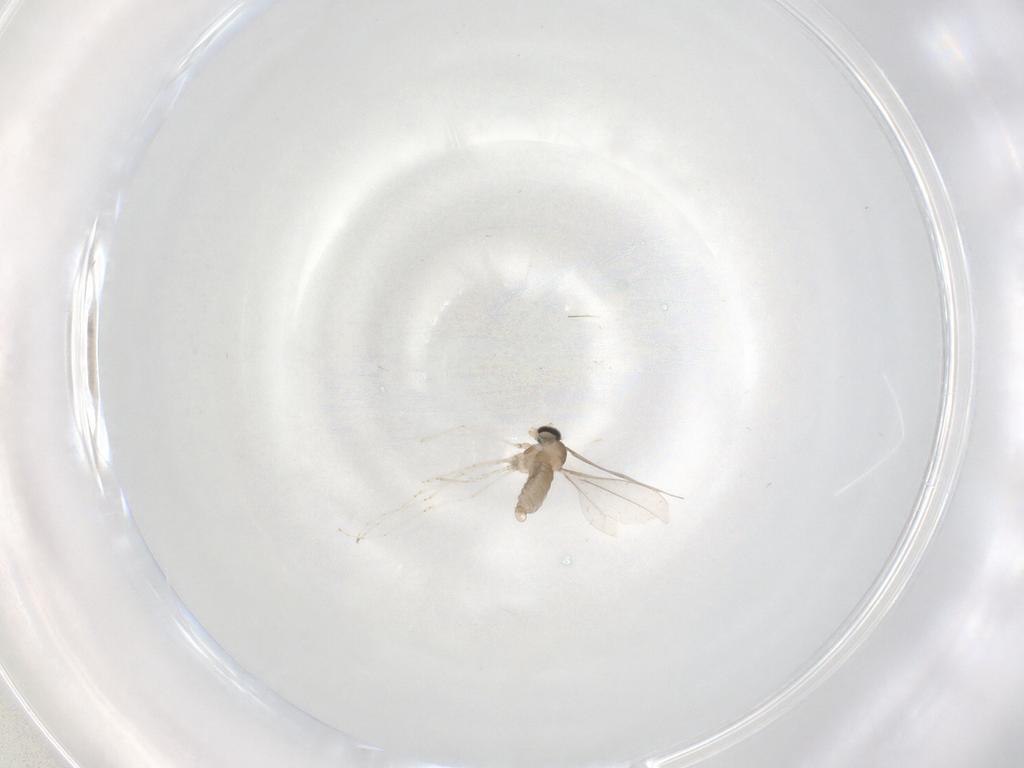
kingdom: Animalia
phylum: Arthropoda
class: Insecta
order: Diptera
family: Cecidomyiidae
